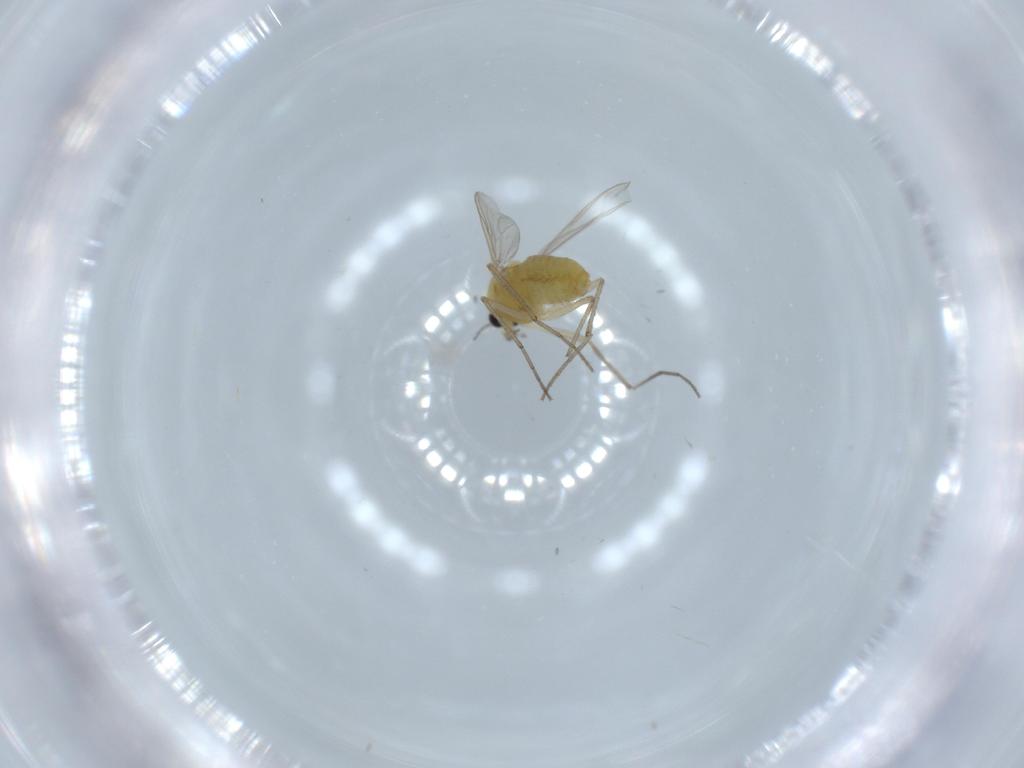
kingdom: Animalia
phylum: Arthropoda
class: Insecta
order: Diptera
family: Chironomidae
